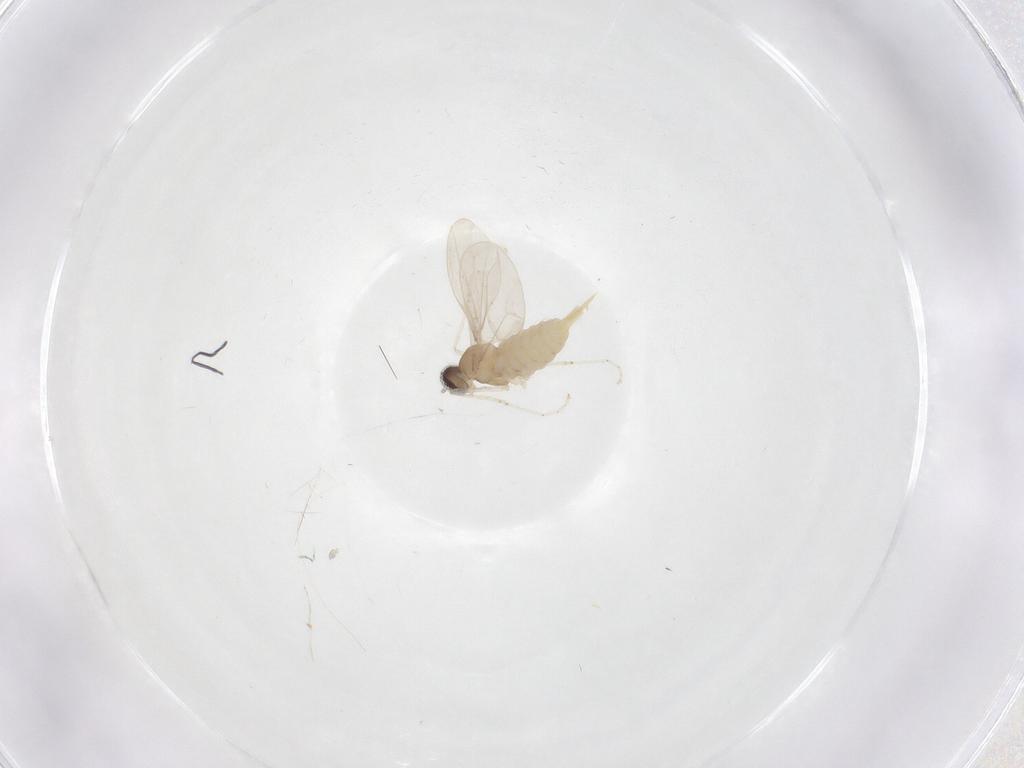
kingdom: Animalia
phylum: Arthropoda
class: Insecta
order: Diptera
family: Cecidomyiidae
